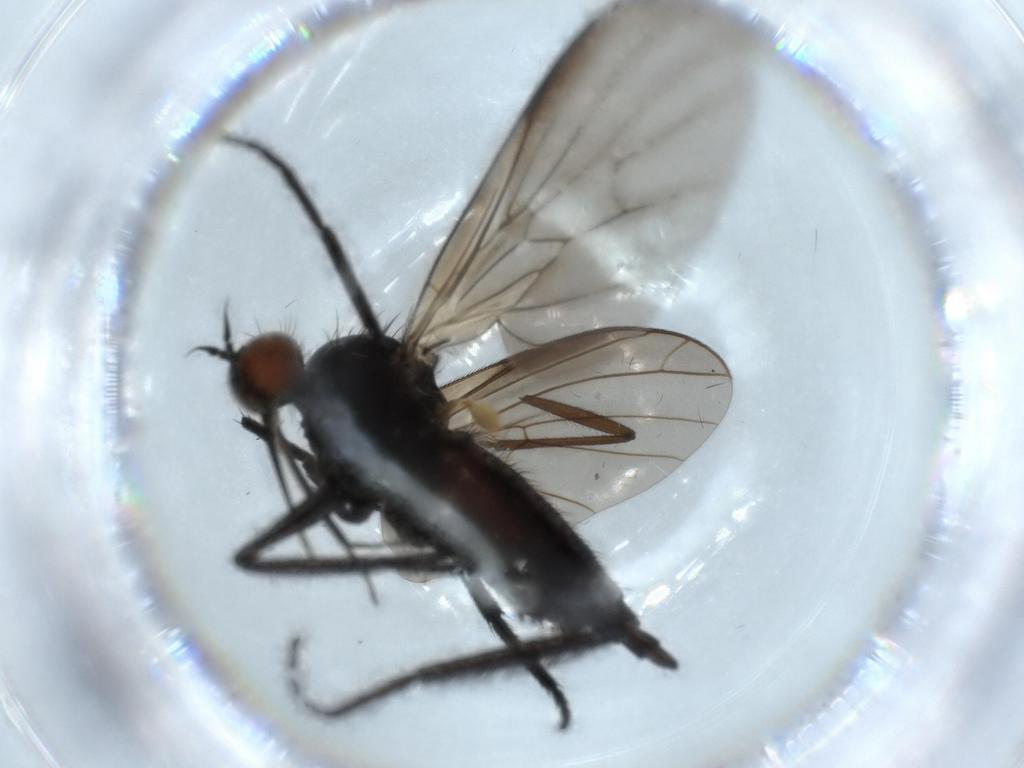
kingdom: Animalia
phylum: Arthropoda
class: Insecta
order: Diptera
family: Empididae
